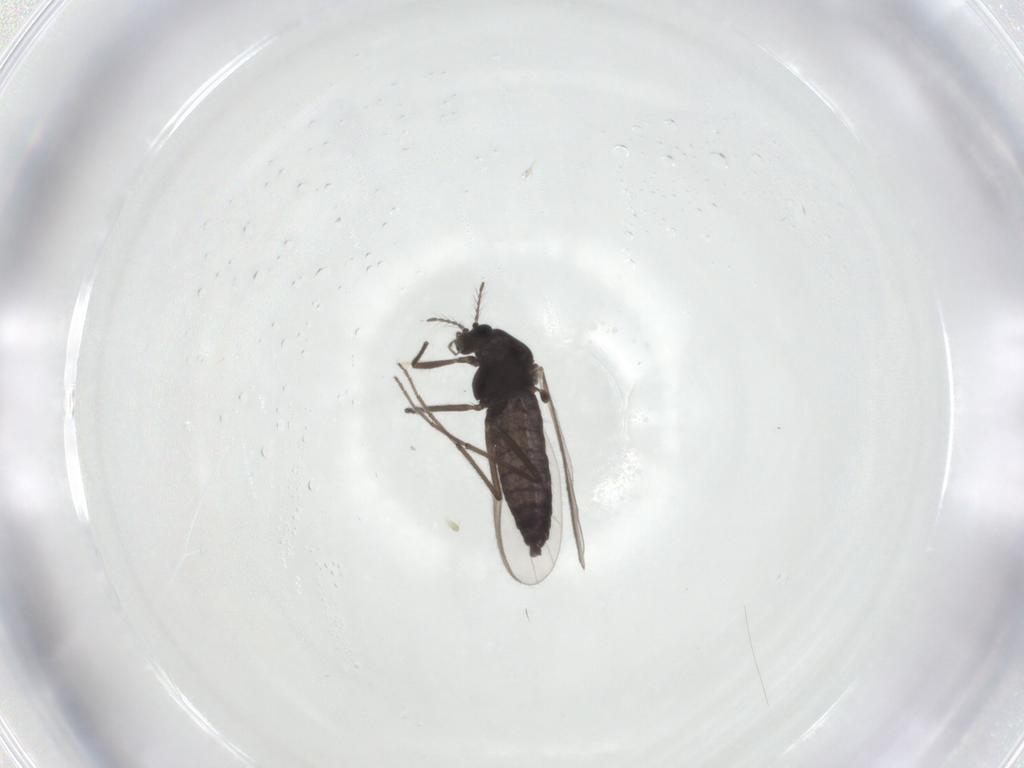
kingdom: Animalia
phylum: Arthropoda
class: Insecta
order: Diptera
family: Chironomidae
